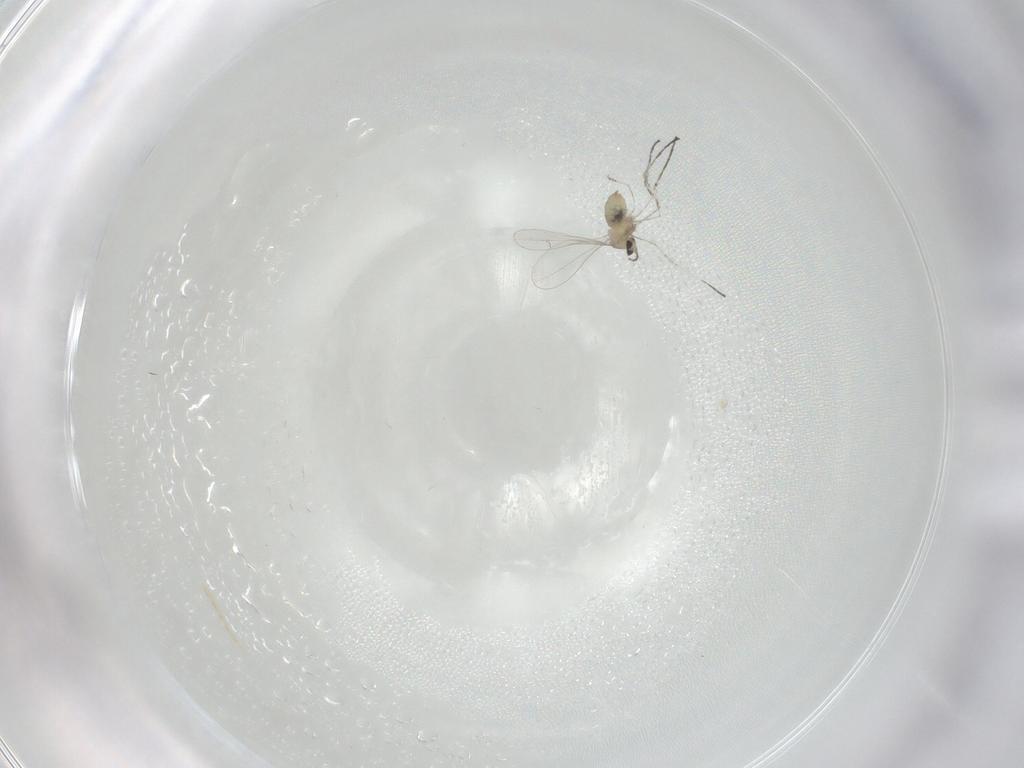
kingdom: Animalia
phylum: Arthropoda
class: Insecta
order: Diptera
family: Cecidomyiidae
